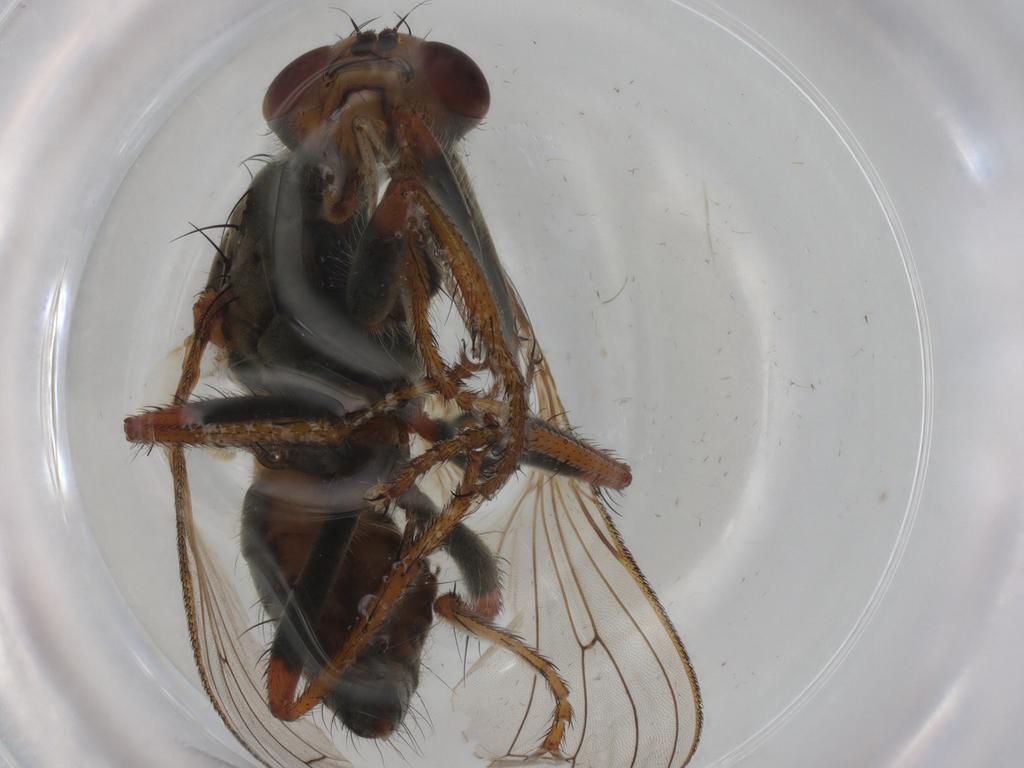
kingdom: Animalia
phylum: Arthropoda
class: Insecta
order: Diptera
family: Scathophagidae
